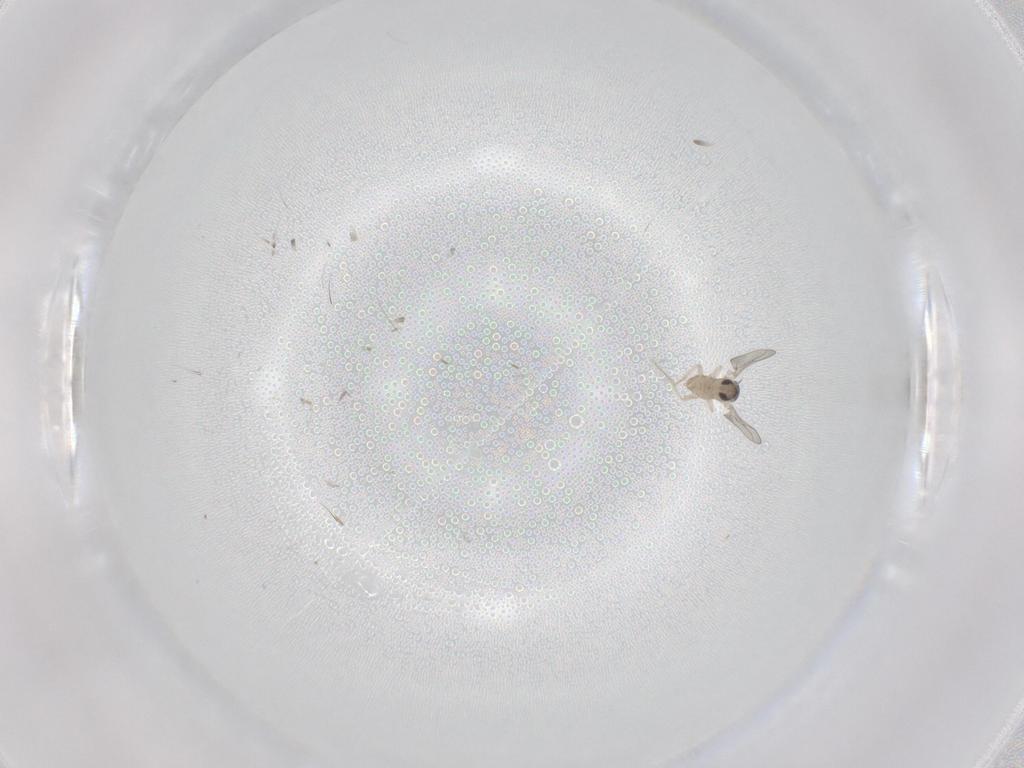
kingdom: Animalia
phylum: Arthropoda
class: Insecta
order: Diptera
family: Cecidomyiidae
